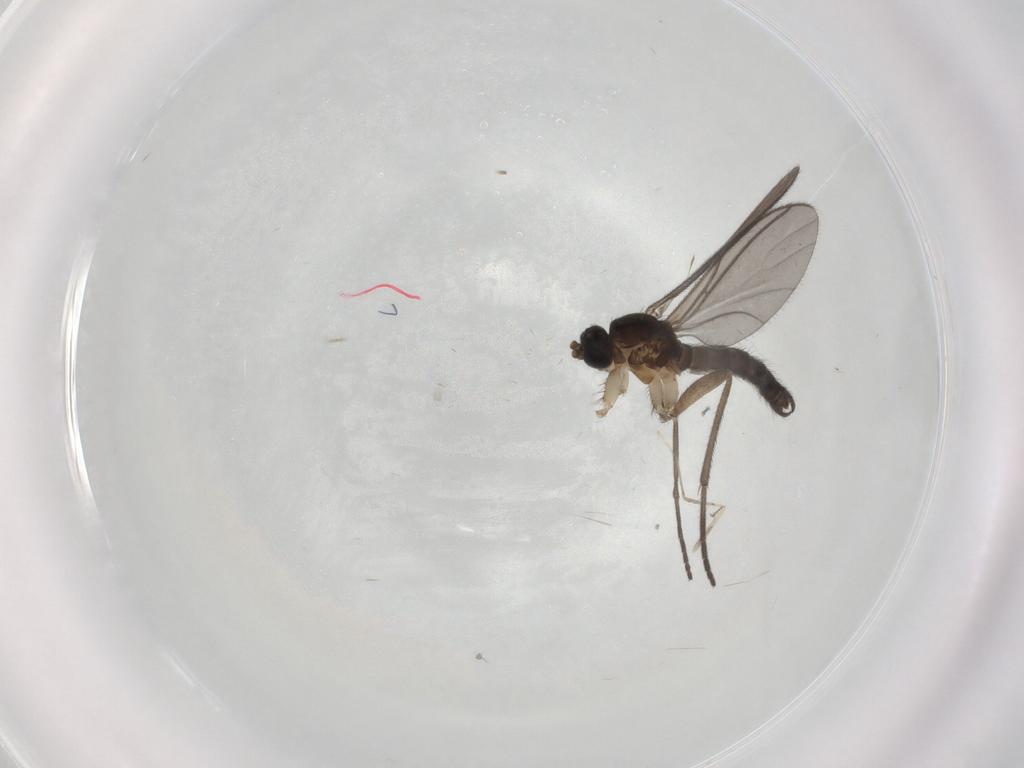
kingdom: Animalia
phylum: Arthropoda
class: Insecta
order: Diptera
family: Sciaridae
